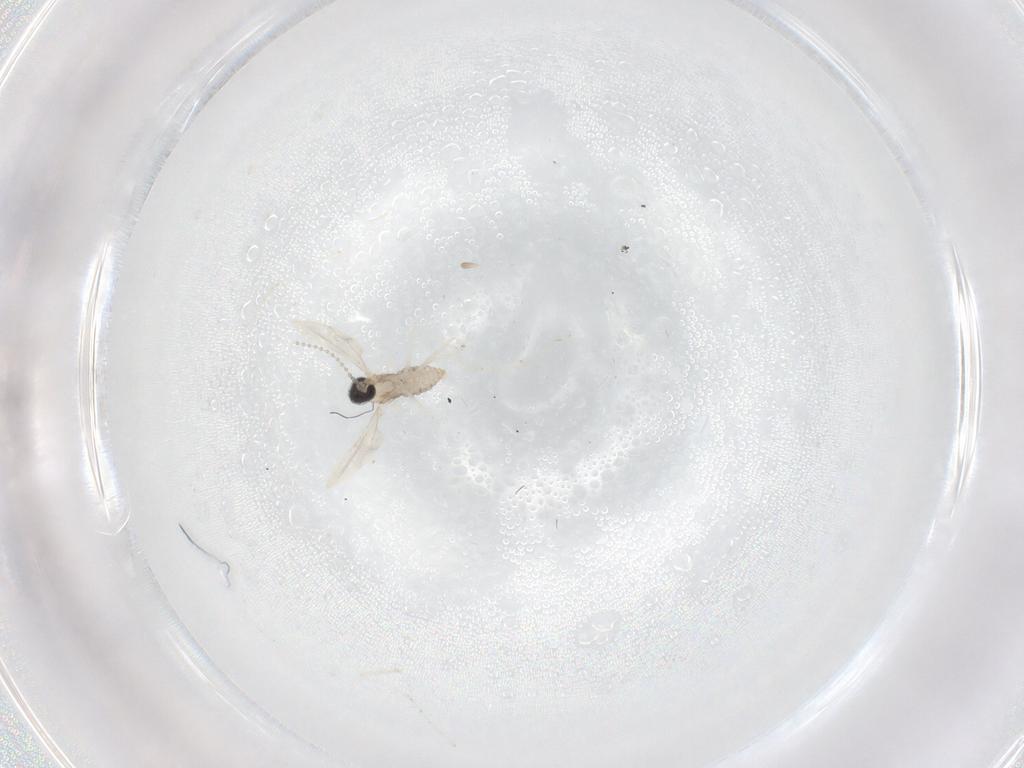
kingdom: Animalia
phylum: Arthropoda
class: Insecta
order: Diptera
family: Cecidomyiidae
